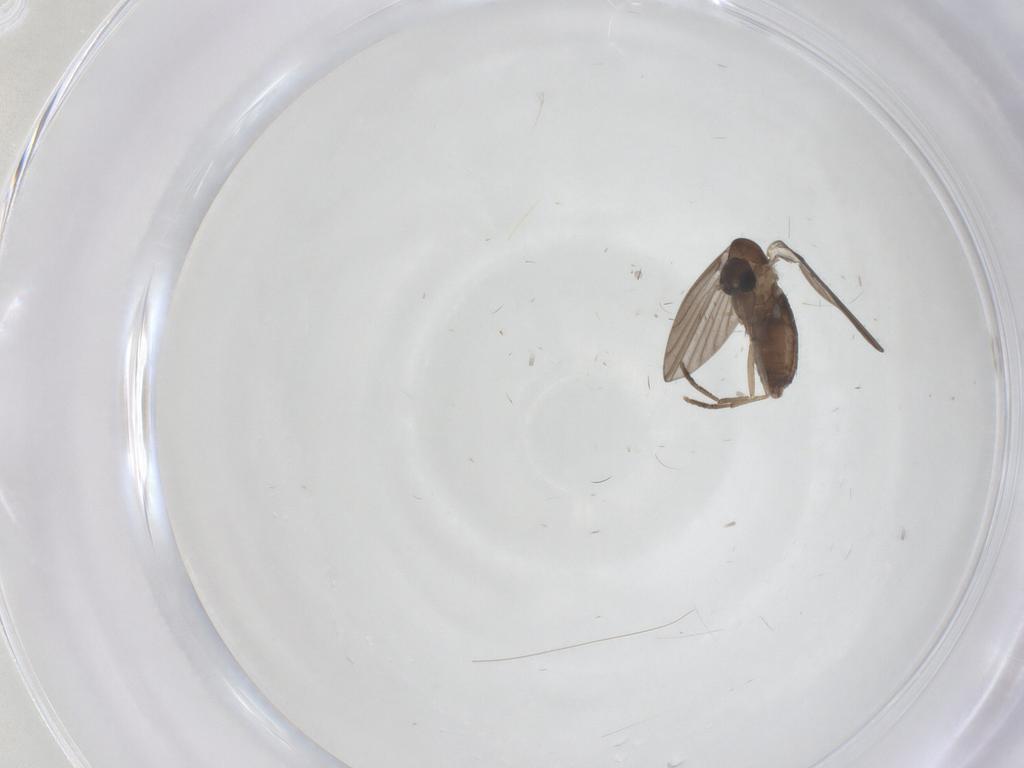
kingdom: Animalia
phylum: Arthropoda
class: Insecta
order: Diptera
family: Psychodidae
